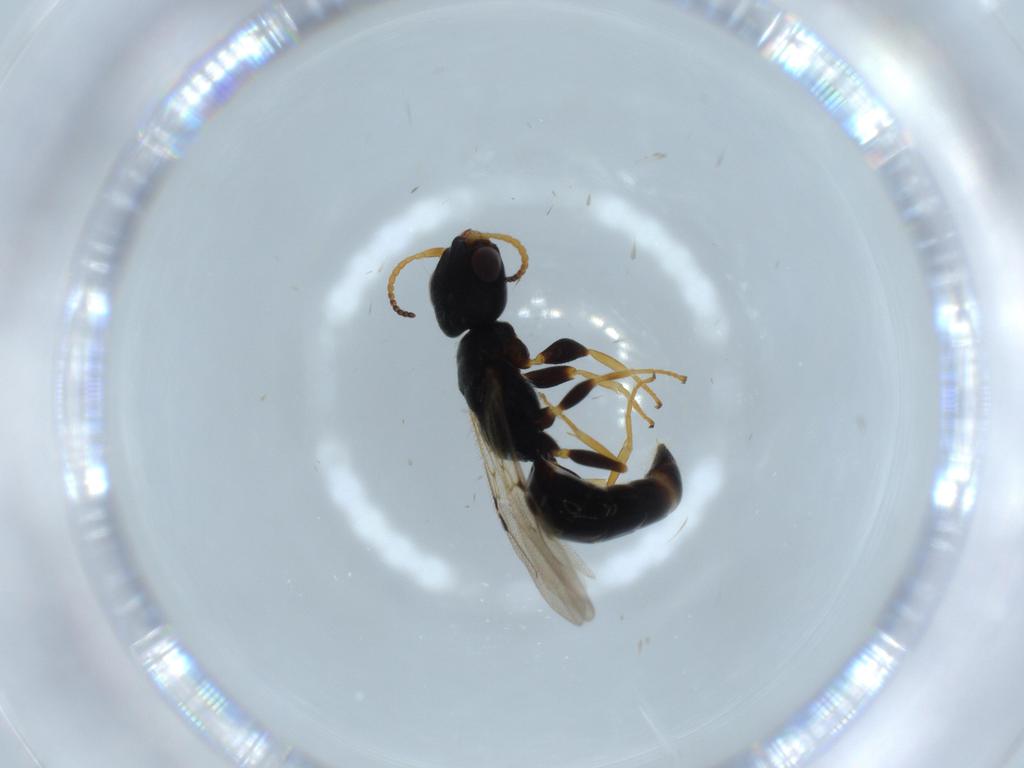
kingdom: Animalia
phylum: Arthropoda
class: Insecta
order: Hymenoptera
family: Bethylidae
